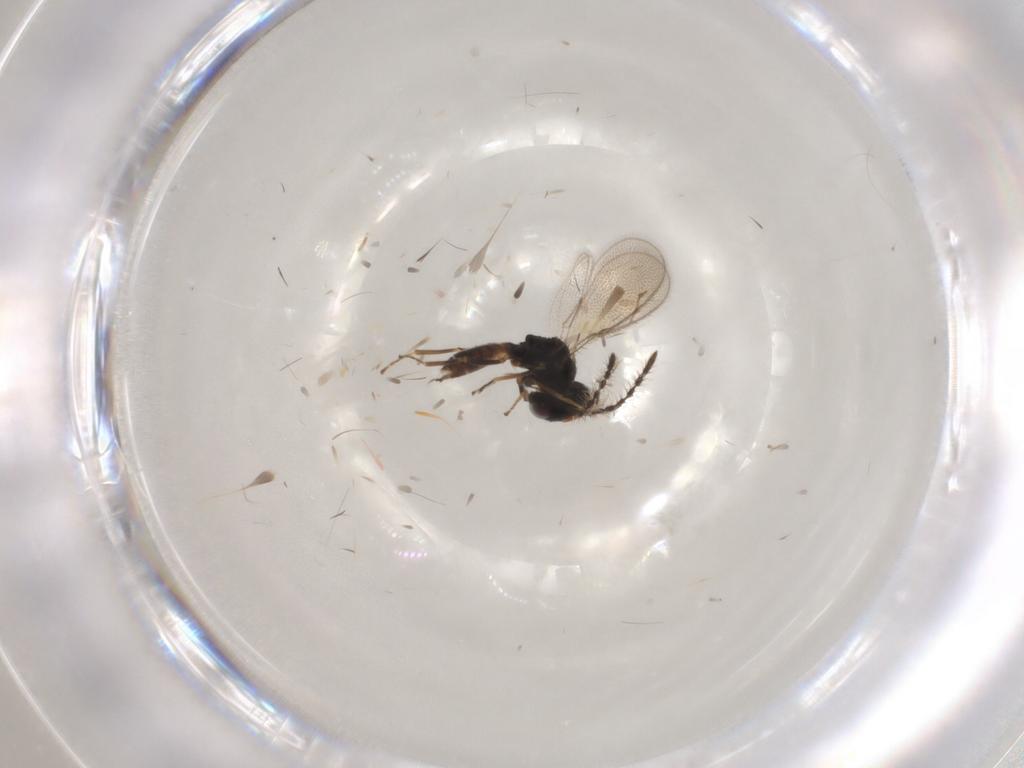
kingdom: Animalia
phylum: Arthropoda
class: Insecta
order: Hymenoptera
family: Pteromalidae
